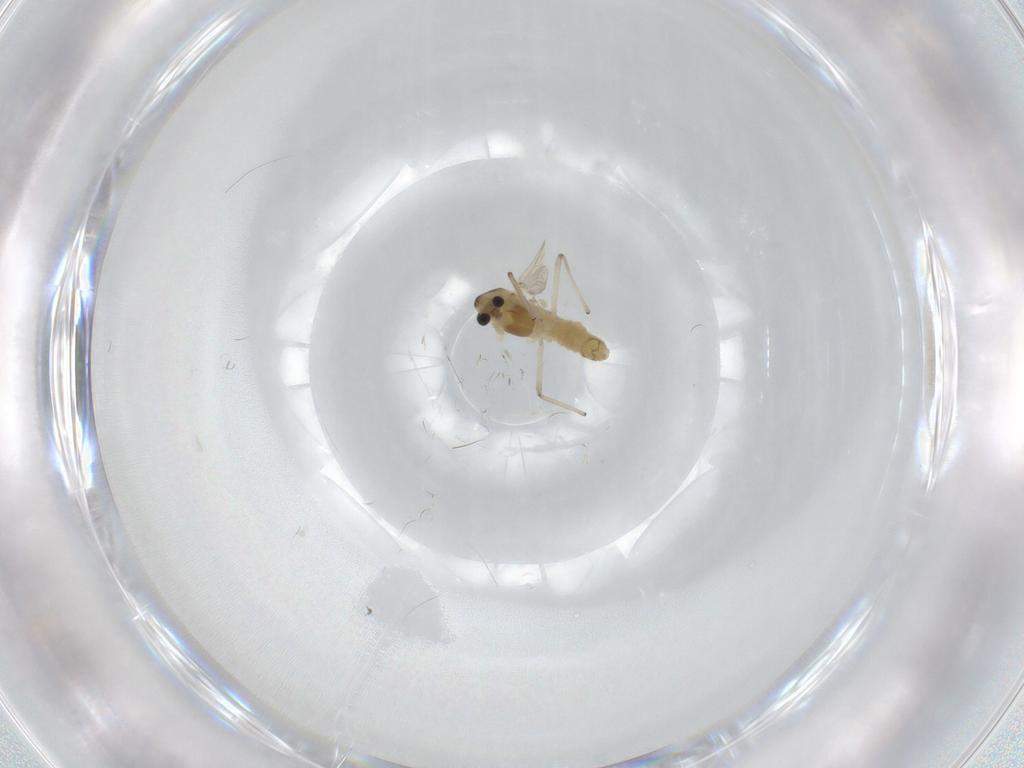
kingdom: Animalia
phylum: Arthropoda
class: Insecta
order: Diptera
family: Chironomidae
